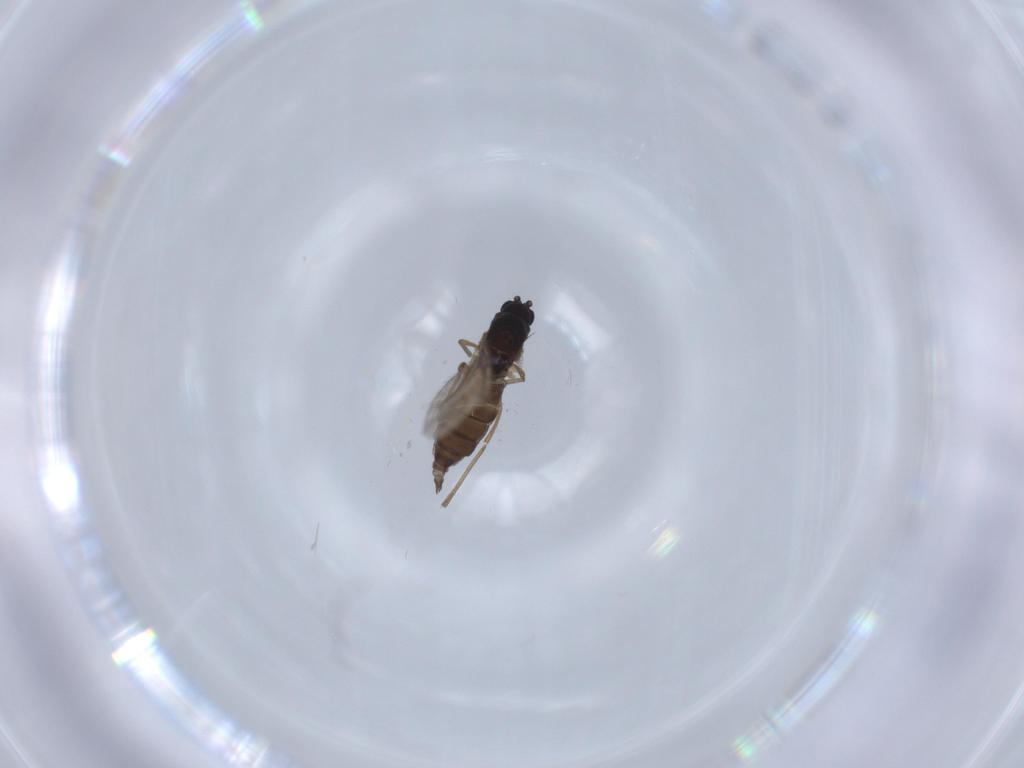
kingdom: Animalia
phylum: Arthropoda
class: Insecta
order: Diptera
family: Sciaridae
